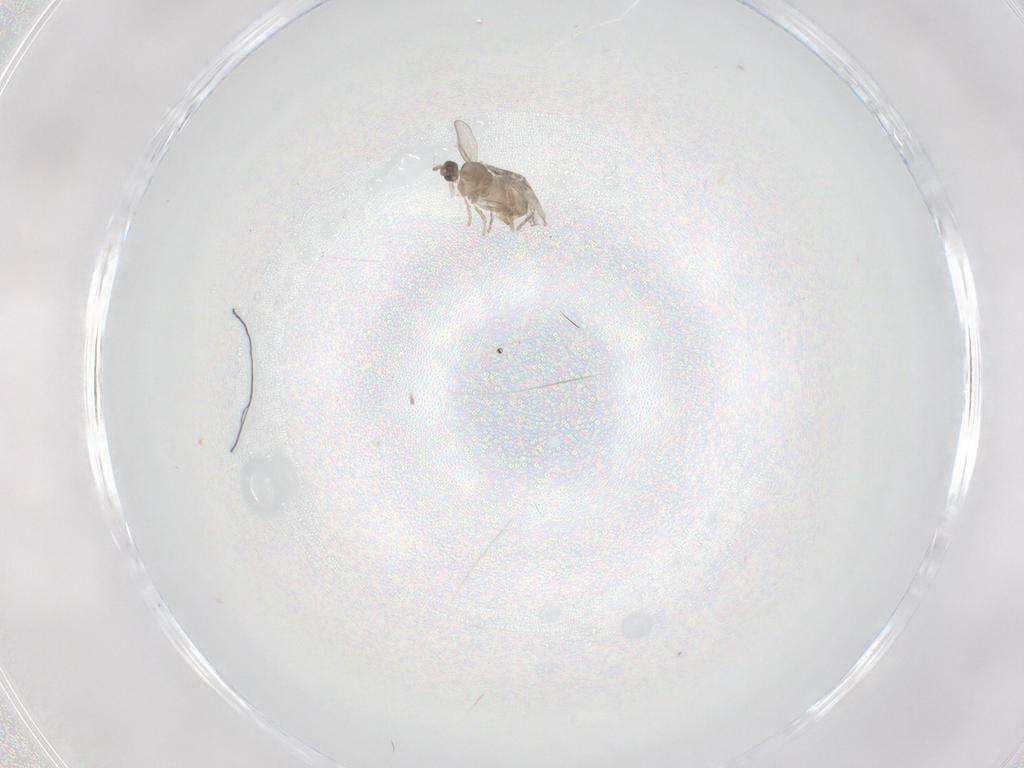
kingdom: Animalia
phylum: Arthropoda
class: Insecta
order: Diptera
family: Cecidomyiidae
